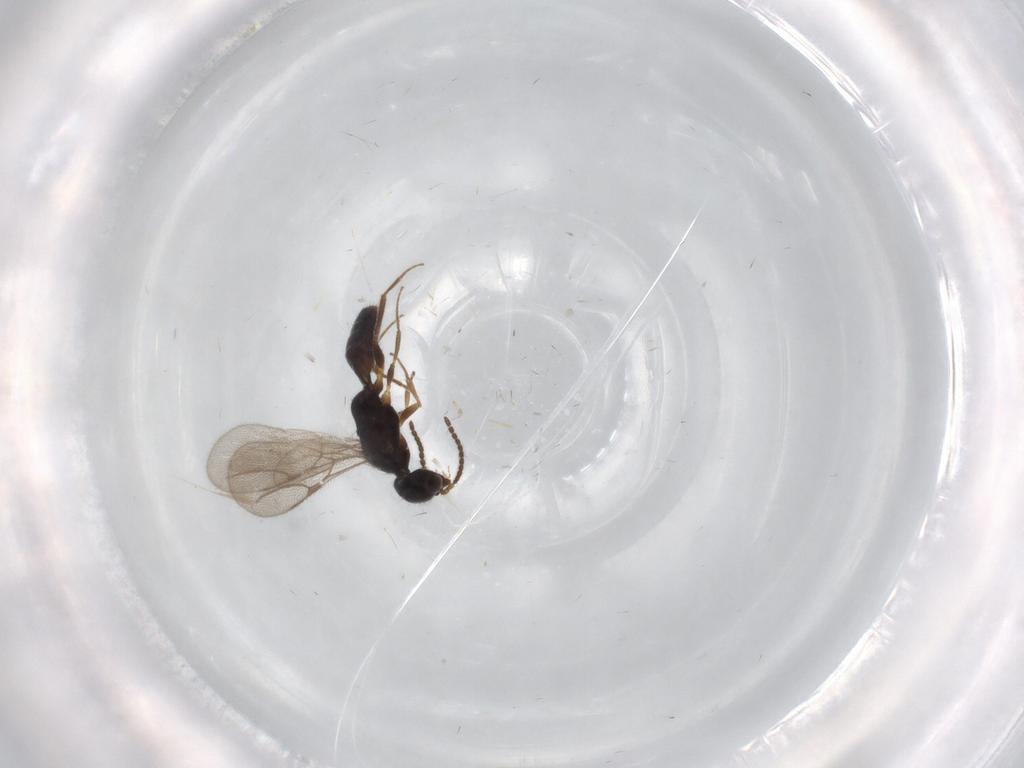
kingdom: Animalia
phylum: Arthropoda
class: Insecta
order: Hymenoptera
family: Bethylidae
